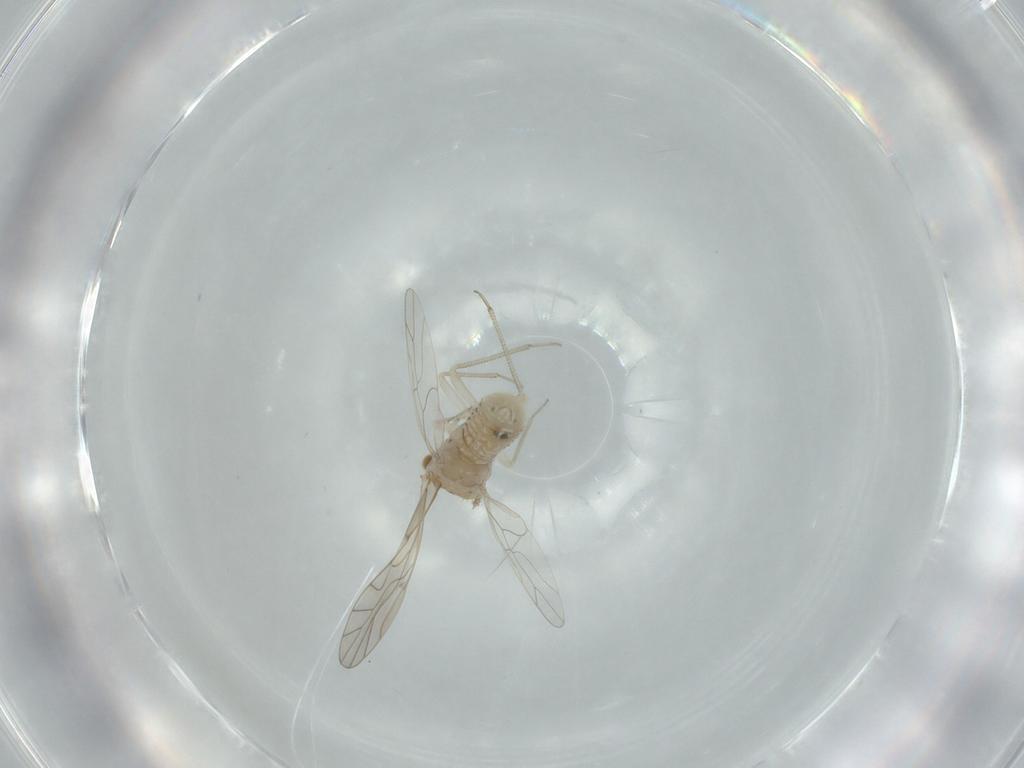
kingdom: Animalia
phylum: Arthropoda
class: Insecta
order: Psocodea
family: Lachesillidae
